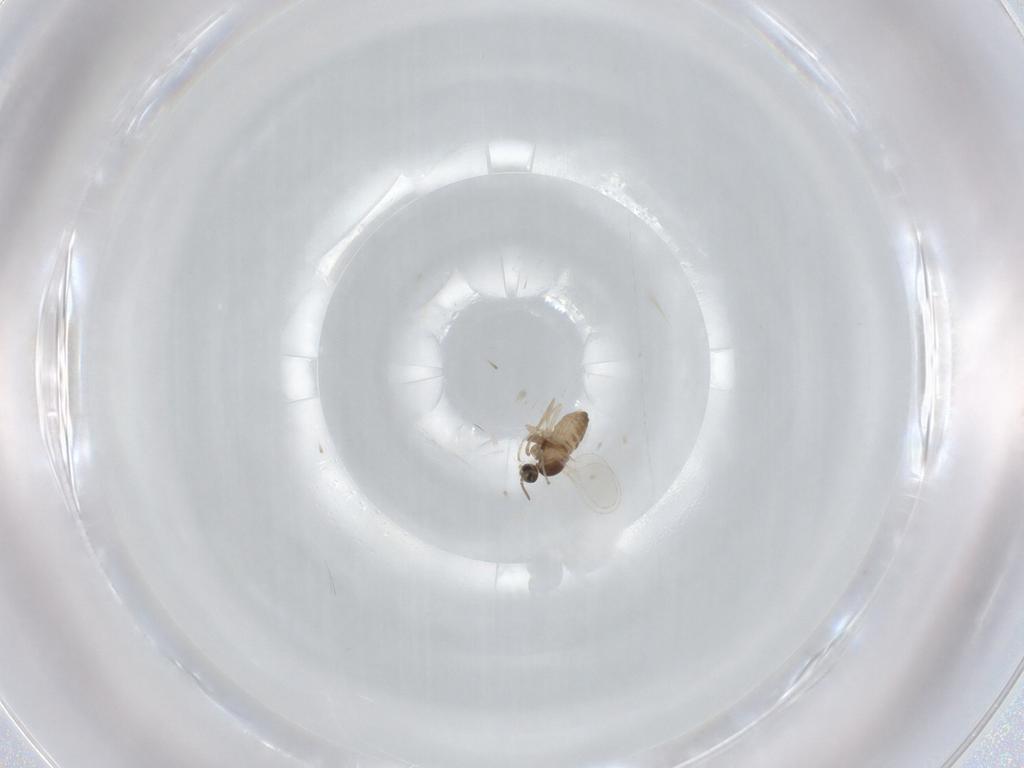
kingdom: Animalia
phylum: Arthropoda
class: Insecta
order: Diptera
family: Cecidomyiidae
